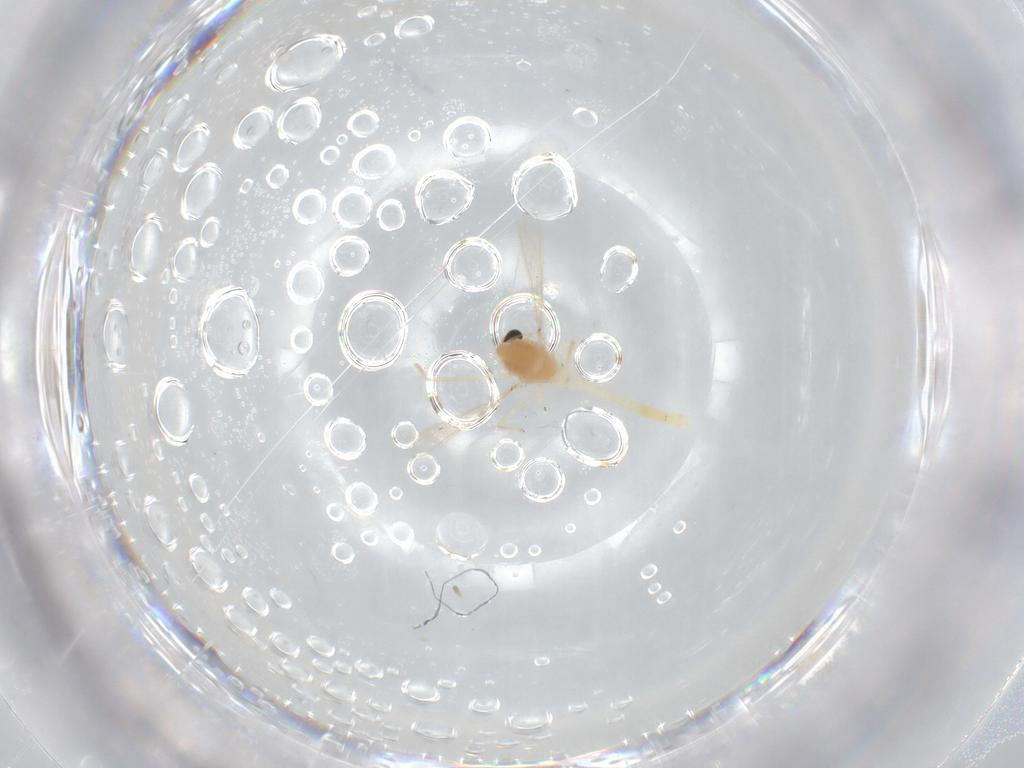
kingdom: Animalia
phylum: Arthropoda
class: Insecta
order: Diptera
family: Chironomidae
